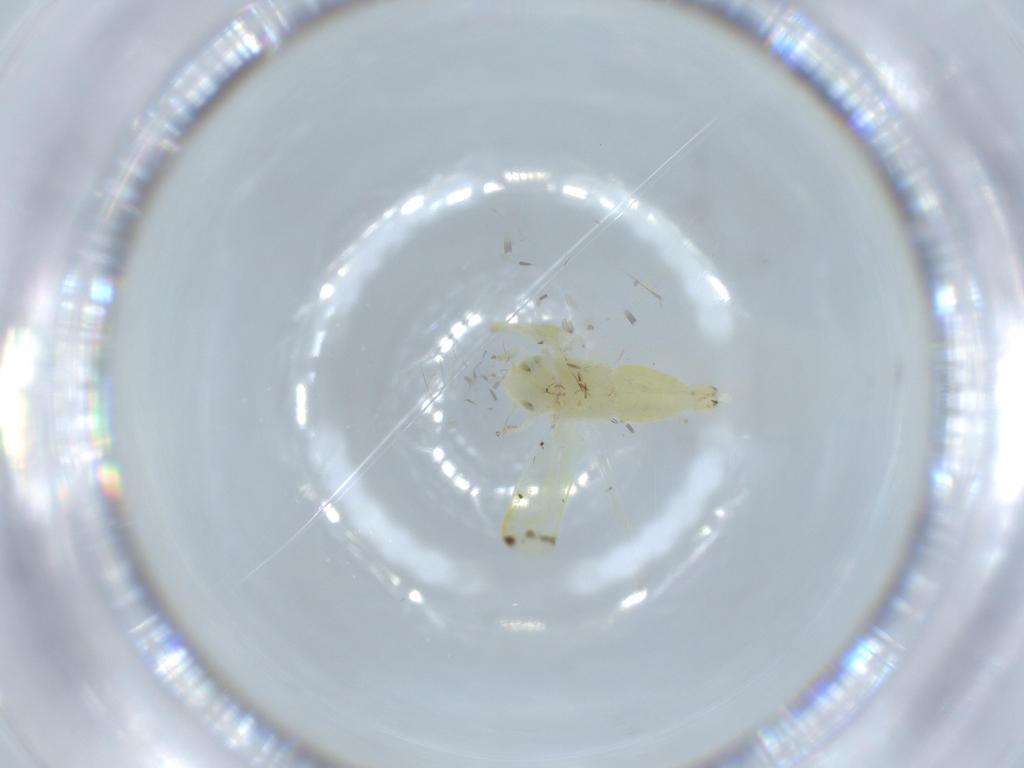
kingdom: Animalia
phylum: Arthropoda
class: Insecta
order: Hemiptera
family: Cicadellidae
